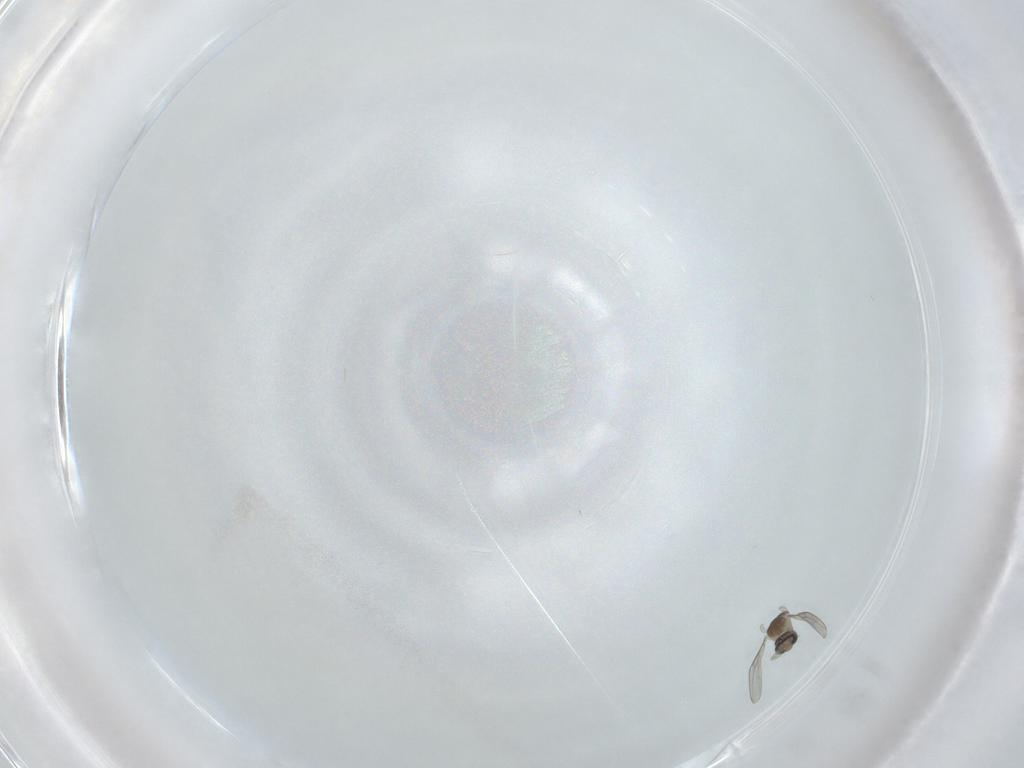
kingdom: Animalia
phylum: Arthropoda
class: Insecta
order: Diptera
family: Cecidomyiidae
